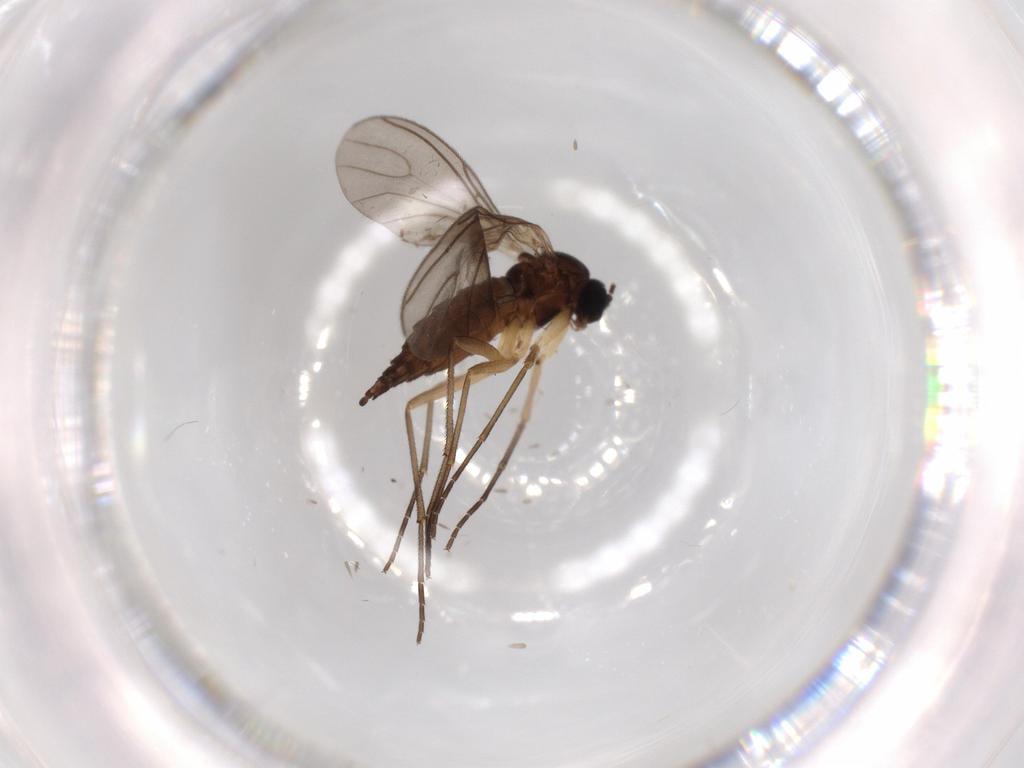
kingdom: Animalia
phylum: Arthropoda
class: Insecta
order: Diptera
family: Sciaridae
